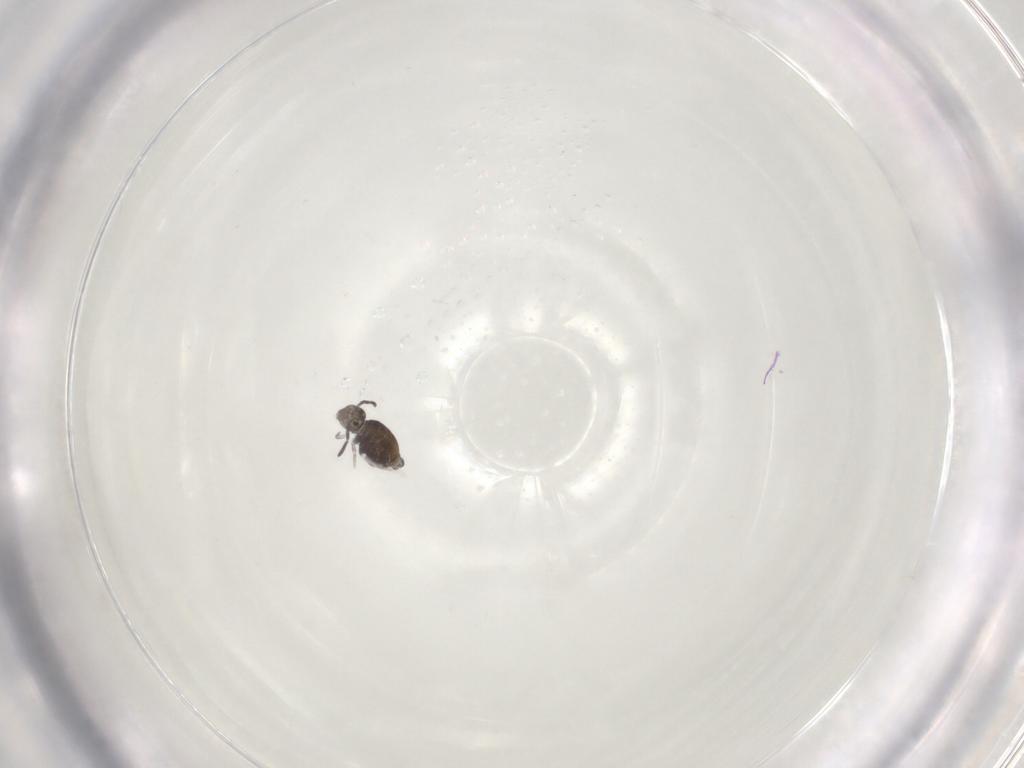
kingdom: Animalia
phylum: Arthropoda
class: Collembola
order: Symphypleona
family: Katiannidae
